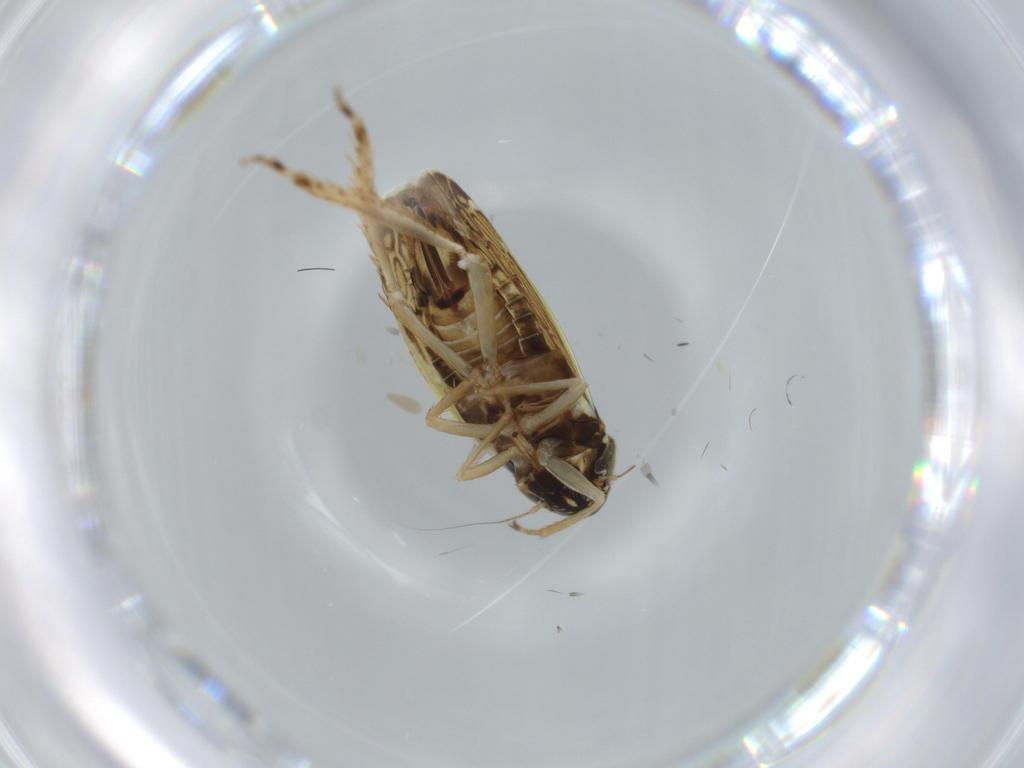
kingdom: Animalia
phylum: Arthropoda
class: Insecta
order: Hemiptera
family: Cicadellidae
